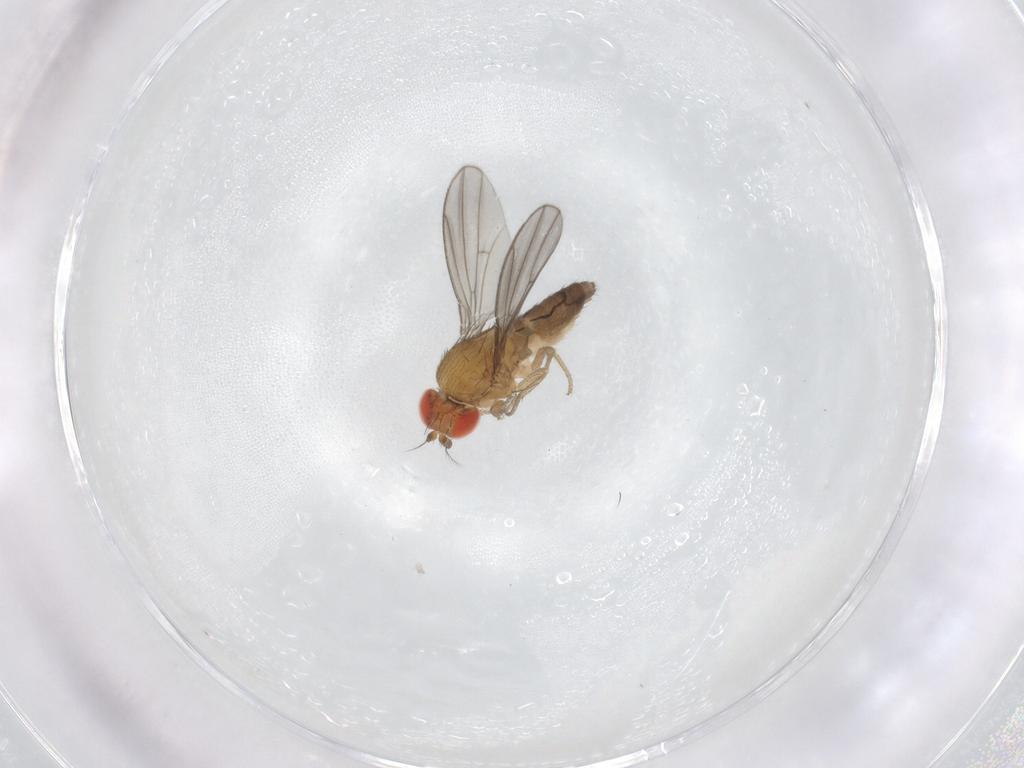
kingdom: Animalia
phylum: Arthropoda
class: Insecta
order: Diptera
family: Drosophilidae
